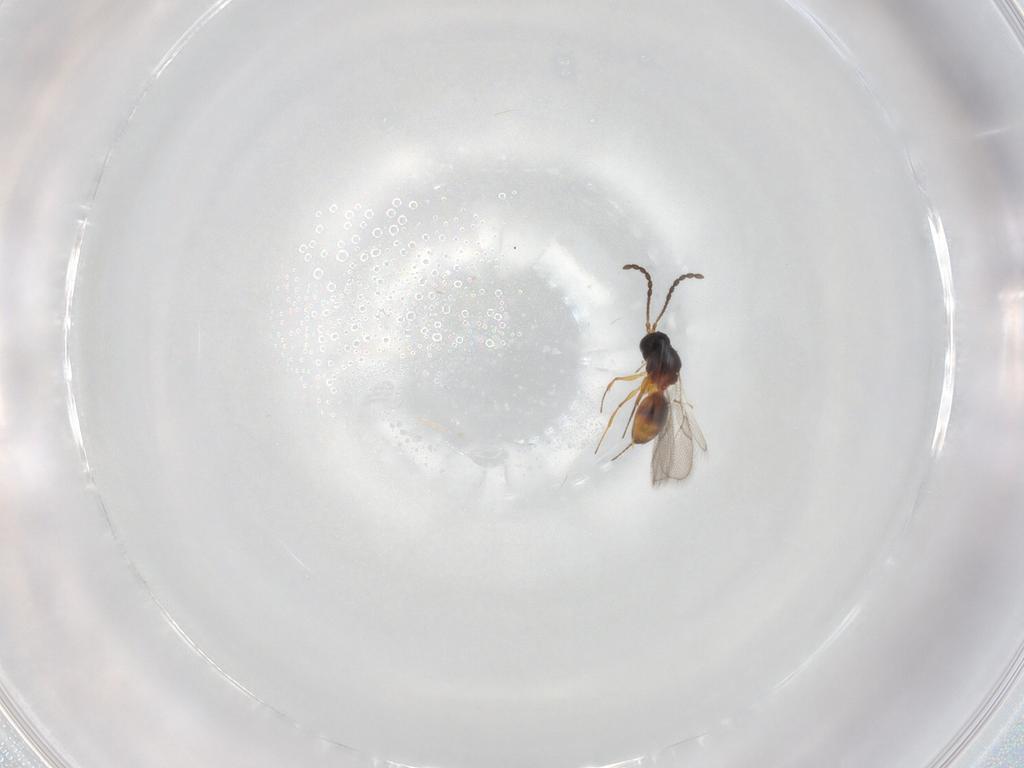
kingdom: Animalia
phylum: Arthropoda
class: Insecta
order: Hymenoptera
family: Figitidae
